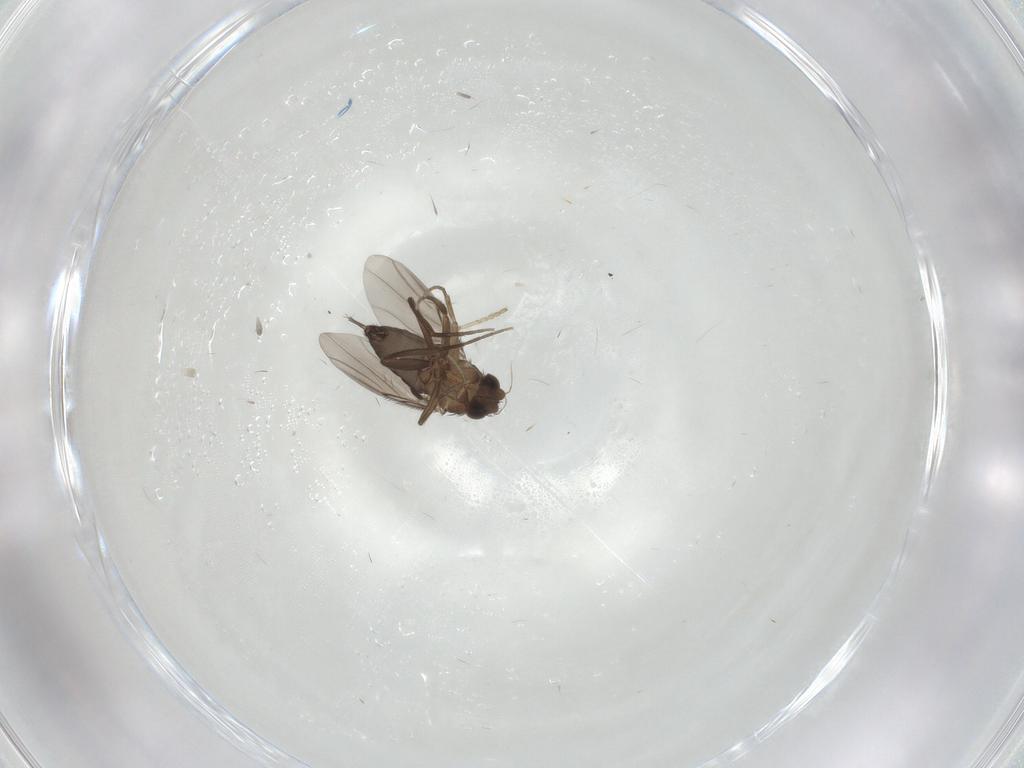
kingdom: Animalia
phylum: Arthropoda
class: Insecta
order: Diptera
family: Phoridae
